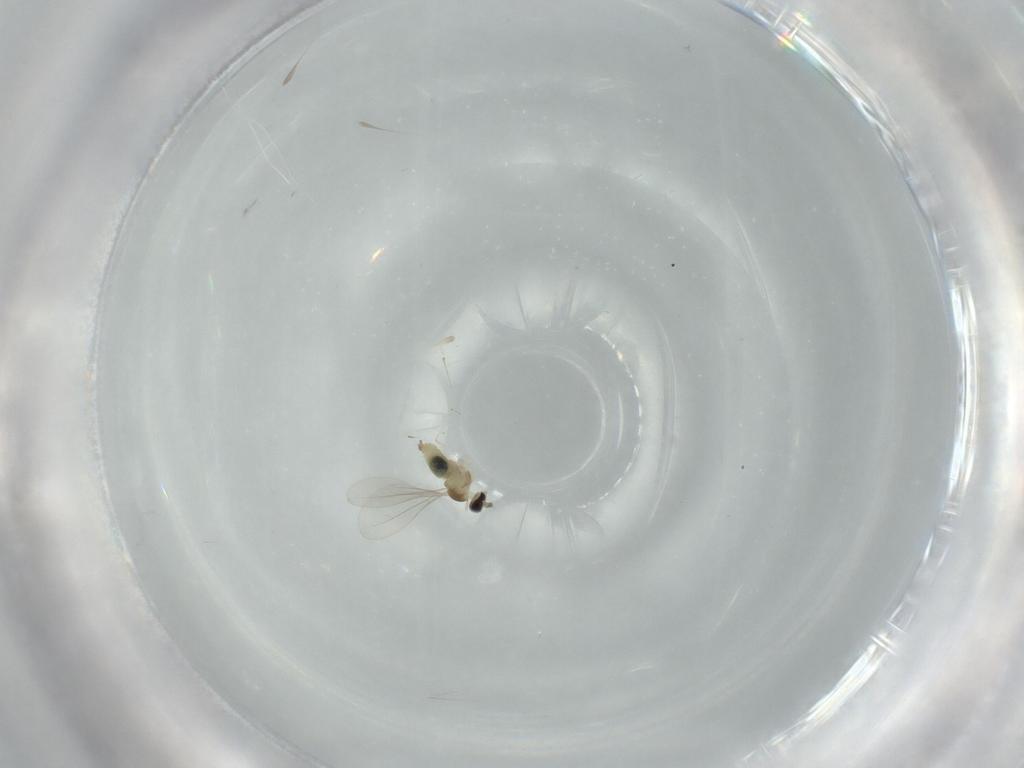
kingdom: Animalia
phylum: Arthropoda
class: Insecta
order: Diptera
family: Cecidomyiidae
